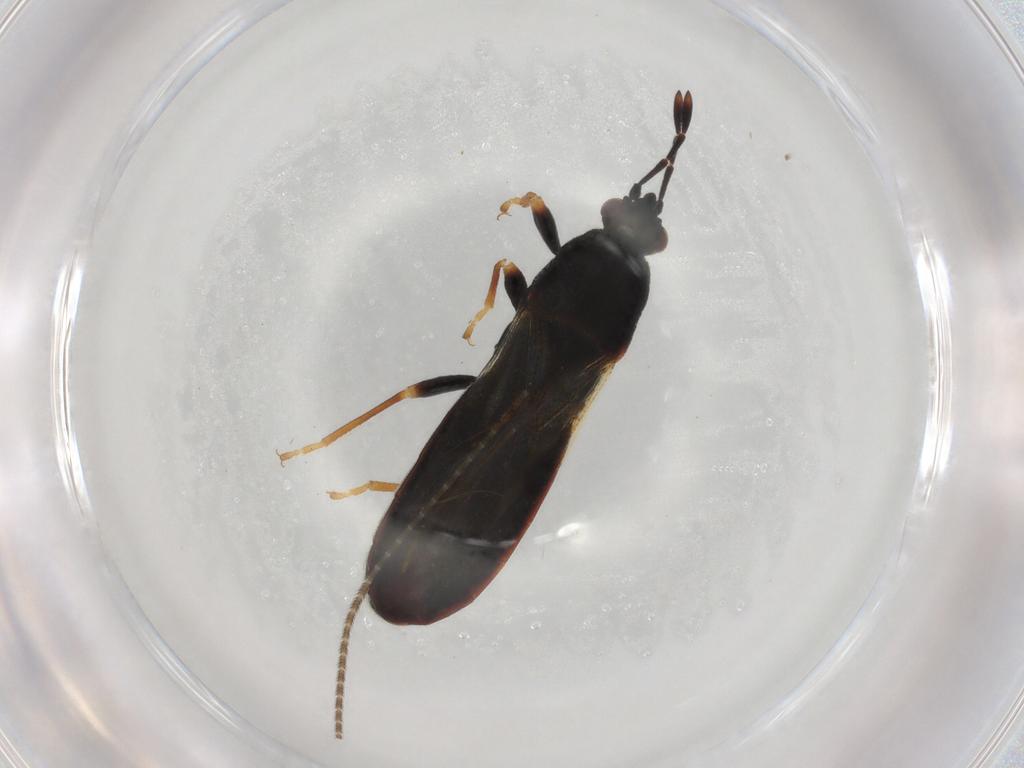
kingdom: Animalia
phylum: Arthropoda
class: Insecta
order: Hemiptera
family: Blissidae
